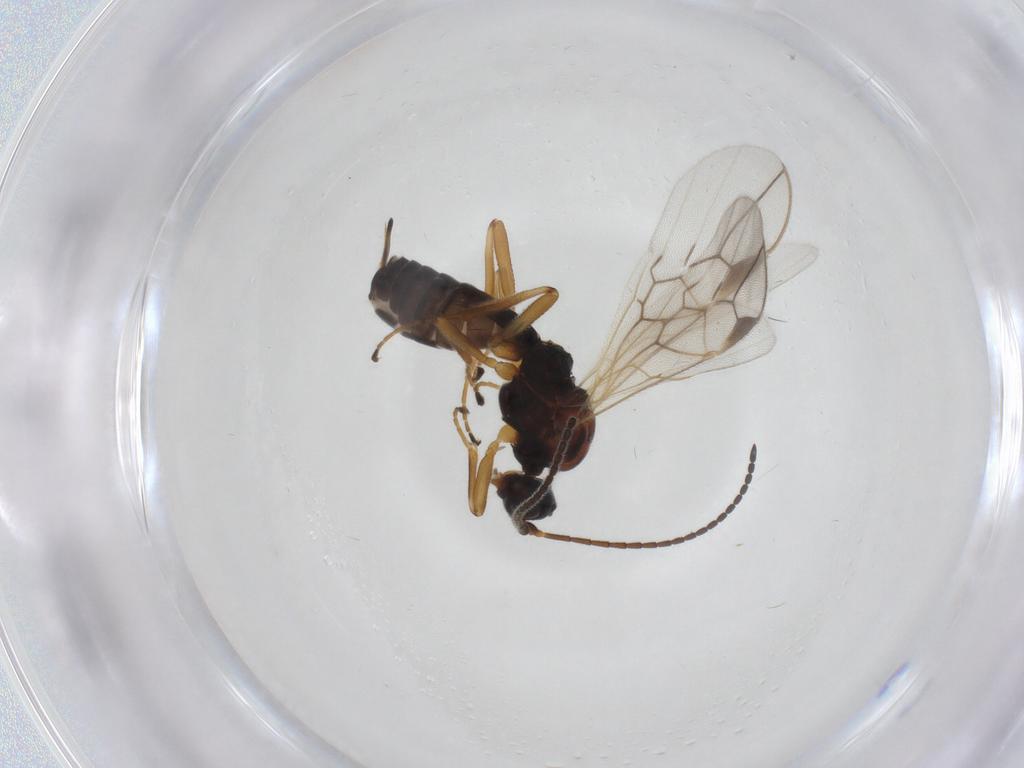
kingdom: Animalia
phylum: Arthropoda
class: Insecta
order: Hymenoptera
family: Braconidae
